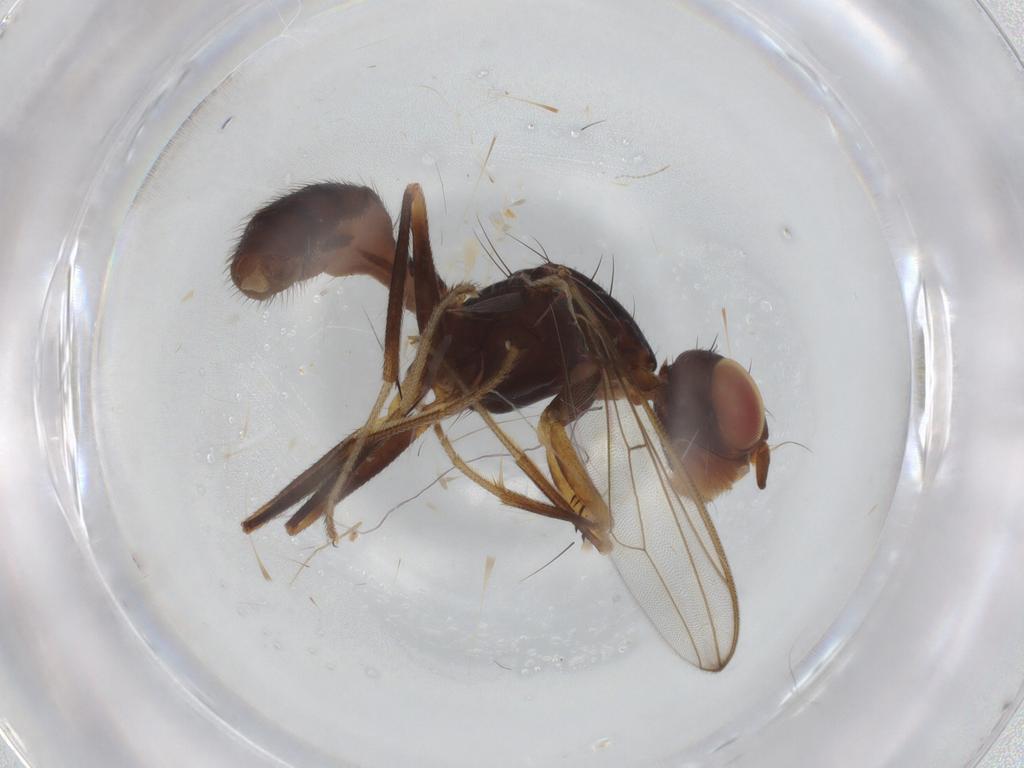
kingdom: Animalia
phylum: Arthropoda
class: Insecta
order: Diptera
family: Richardiidae
